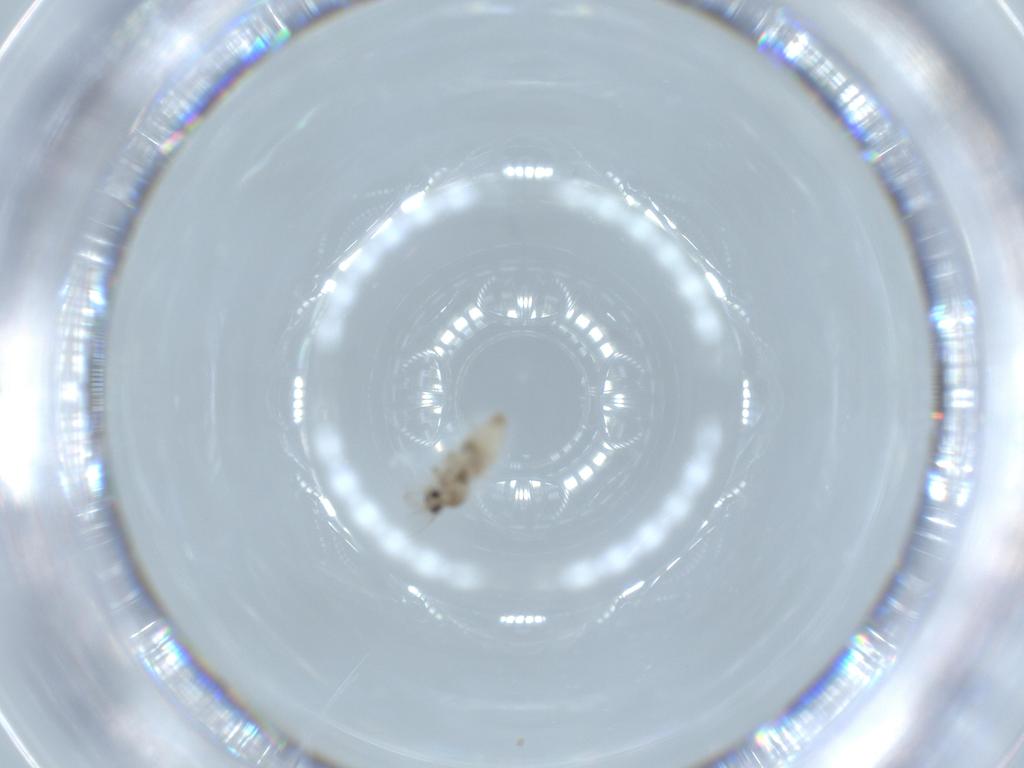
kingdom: Animalia
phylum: Arthropoda
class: Insecta
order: Diptera
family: Cecidomyiidae
